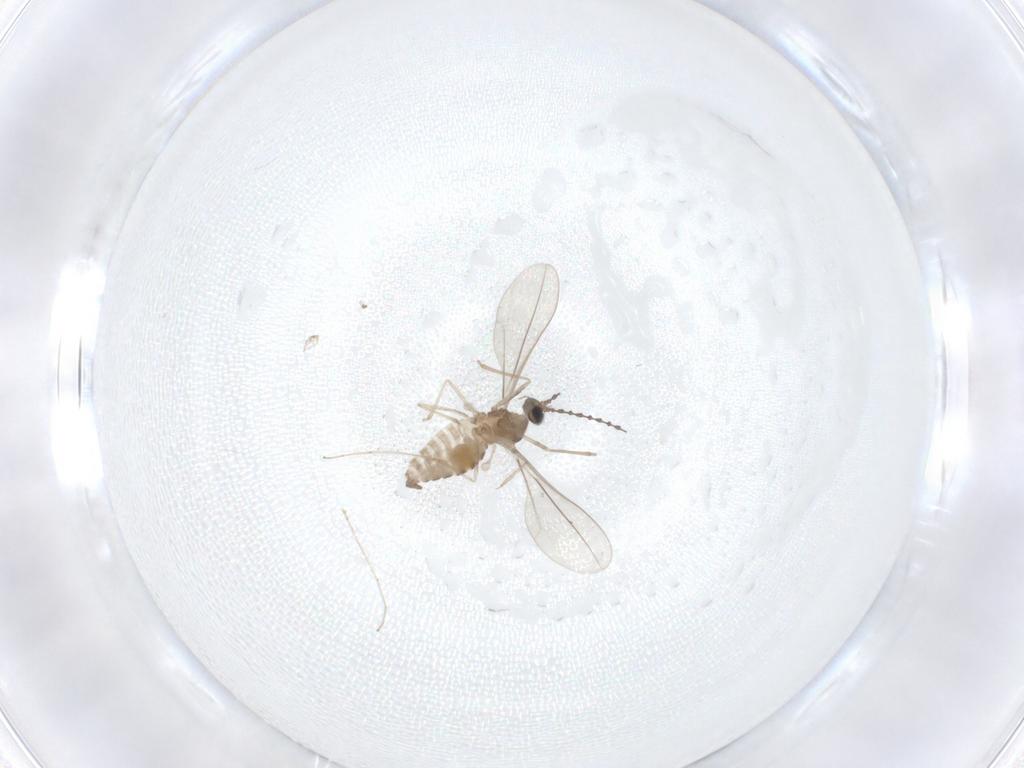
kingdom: Animalia
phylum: Arthropoda
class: Insecta
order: Diptera
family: Cecidomyiidae
